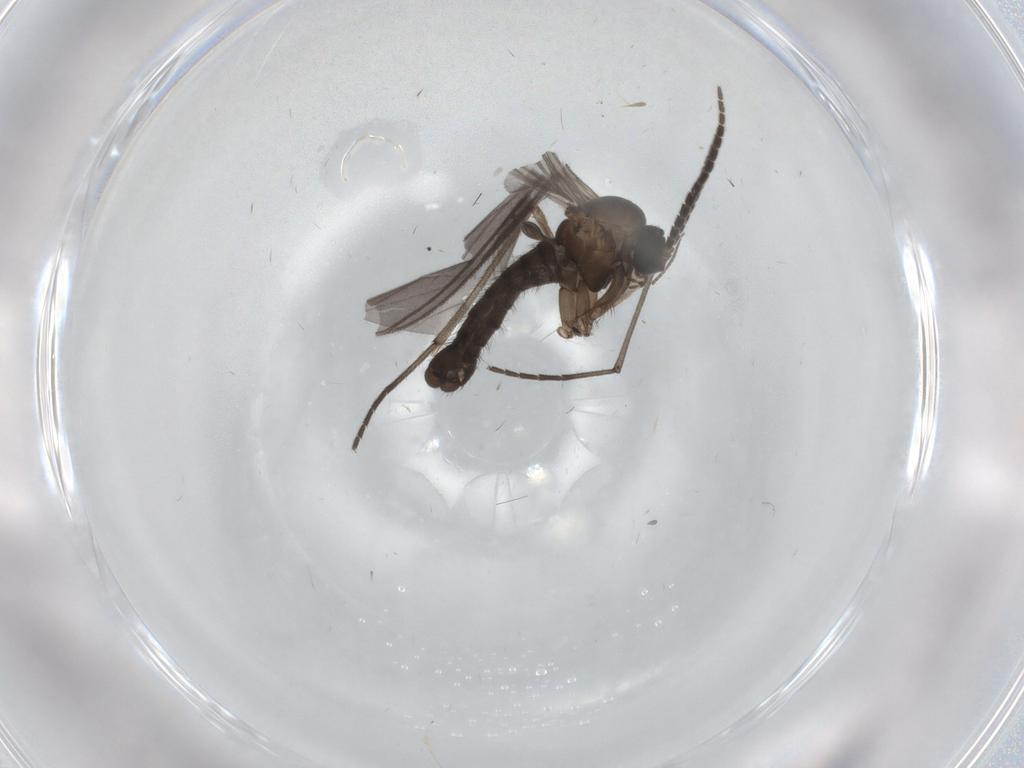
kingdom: Animalia
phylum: Arthropoda
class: Insecta
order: Diptera
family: Sciaridae
